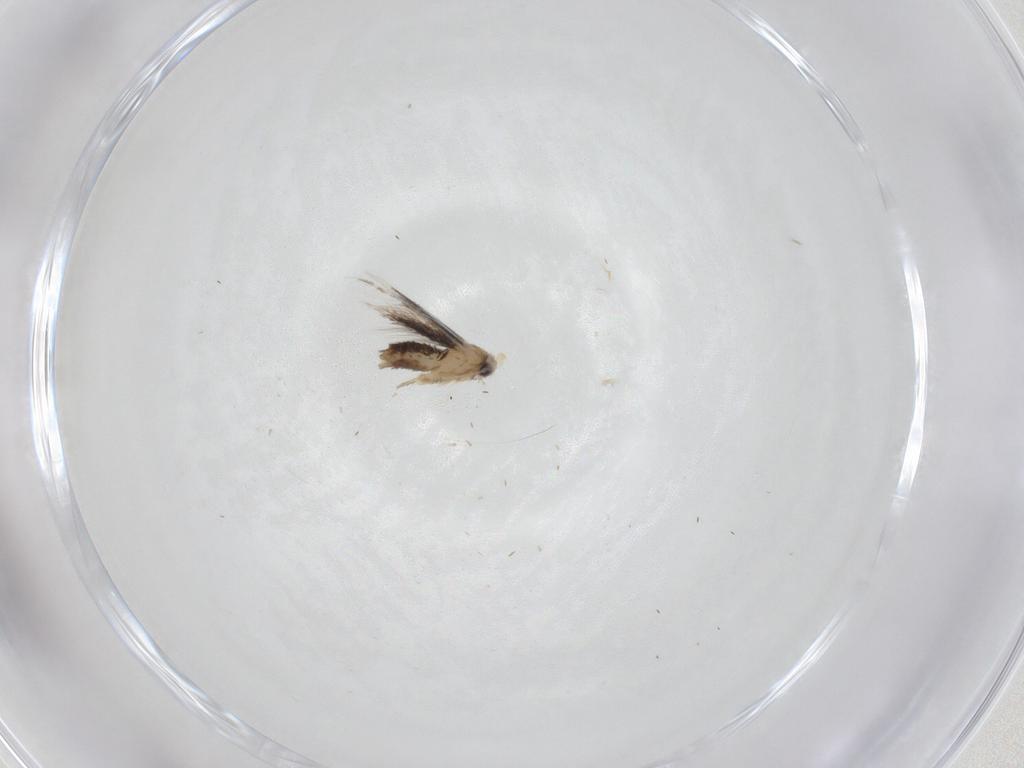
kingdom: Animalia
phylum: Arthropoda
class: Insecta
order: Lepidoptera
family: Nepticulidae
